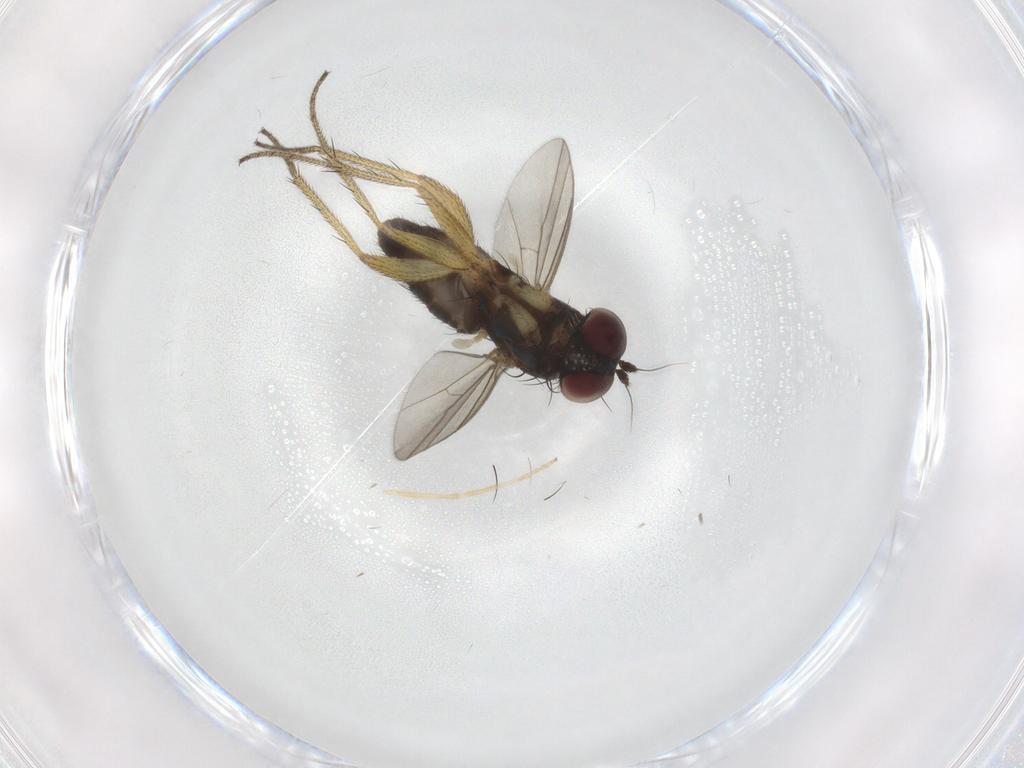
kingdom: Animalia
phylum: Arthropoda
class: Insecta
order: Diptera
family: Dolichopodidae
